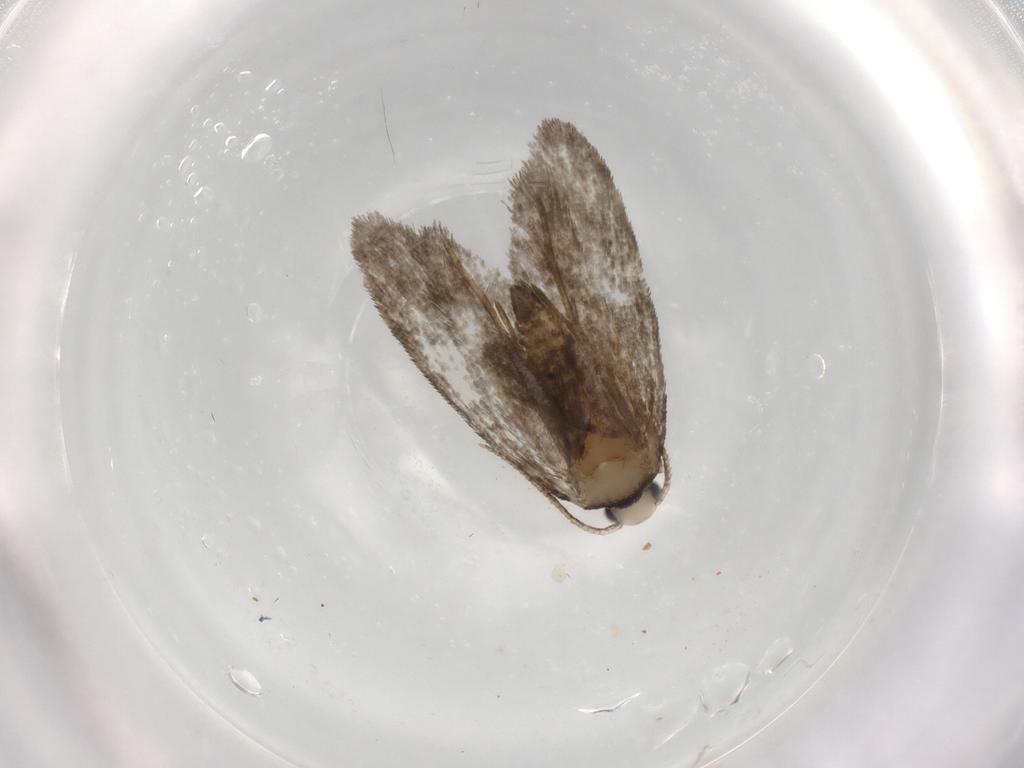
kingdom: Animalia
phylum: Arthropoda
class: Insecta
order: Lepidoptera
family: Psychidae
